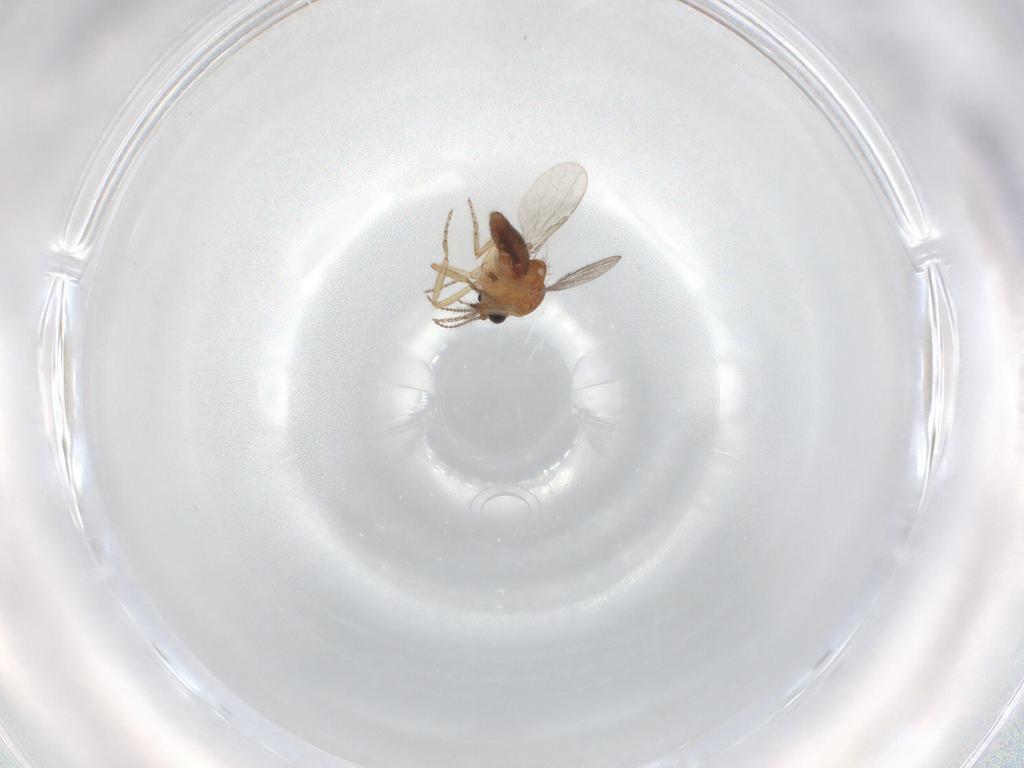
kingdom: Animalia
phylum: Arthropoda
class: Insecta
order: Diptera
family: Ceratopogonidae
